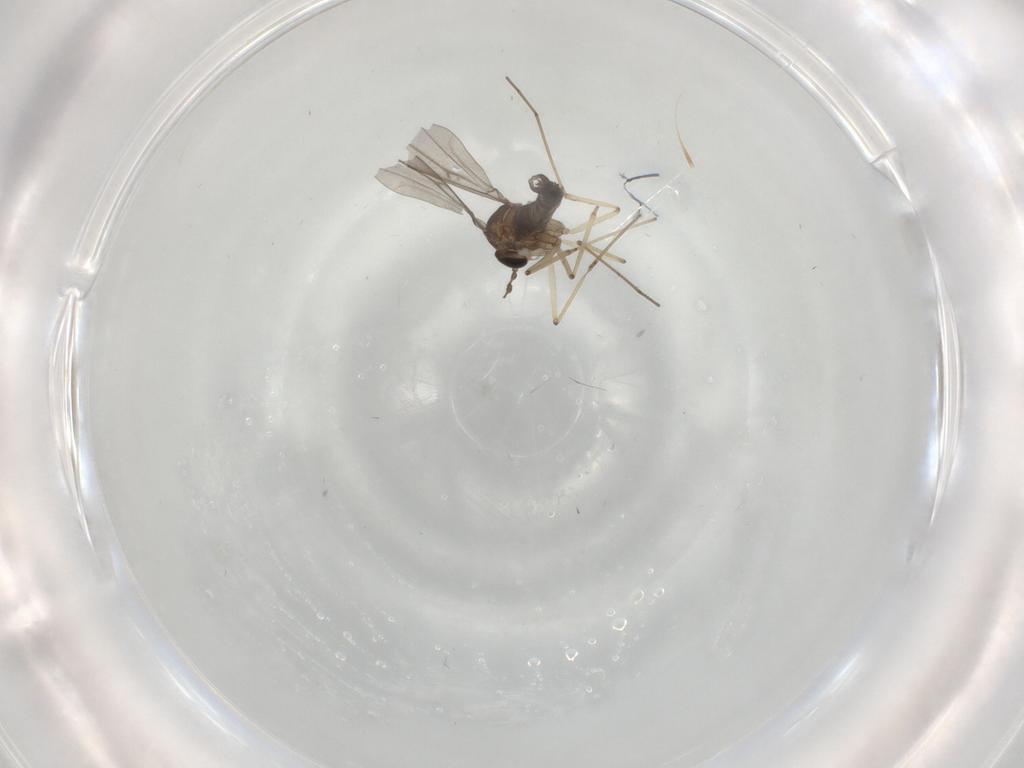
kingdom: Animalia
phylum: Arthropoda
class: Insecta
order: Diptera
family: Cecidomyiidae
